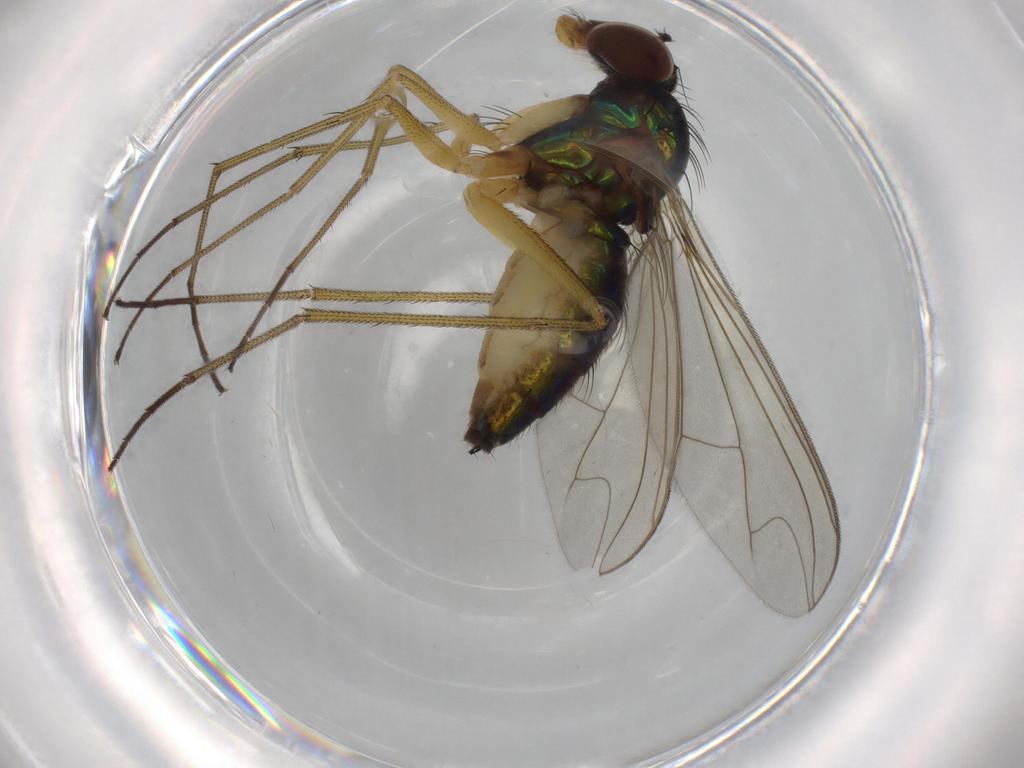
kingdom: Animalia
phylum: Arthropoda
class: Insecta
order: Diptera
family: Dolichopodidae
